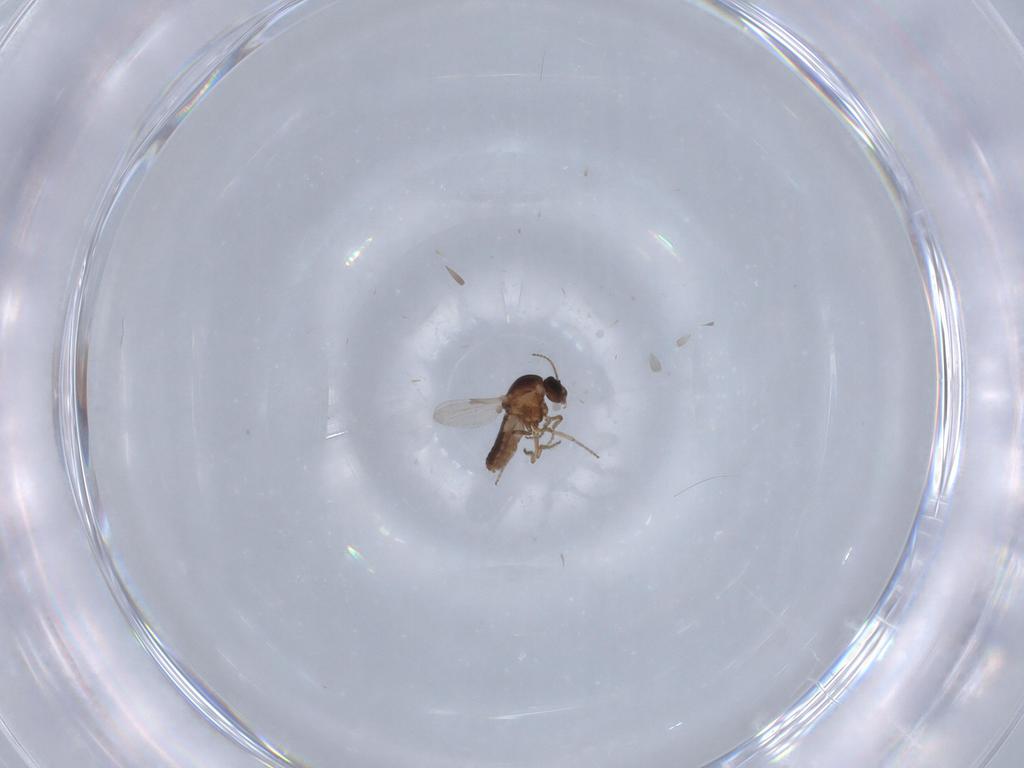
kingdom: Animalia
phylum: Arthropoda
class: Insecta
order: Diptera
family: Ceratopogonidae
